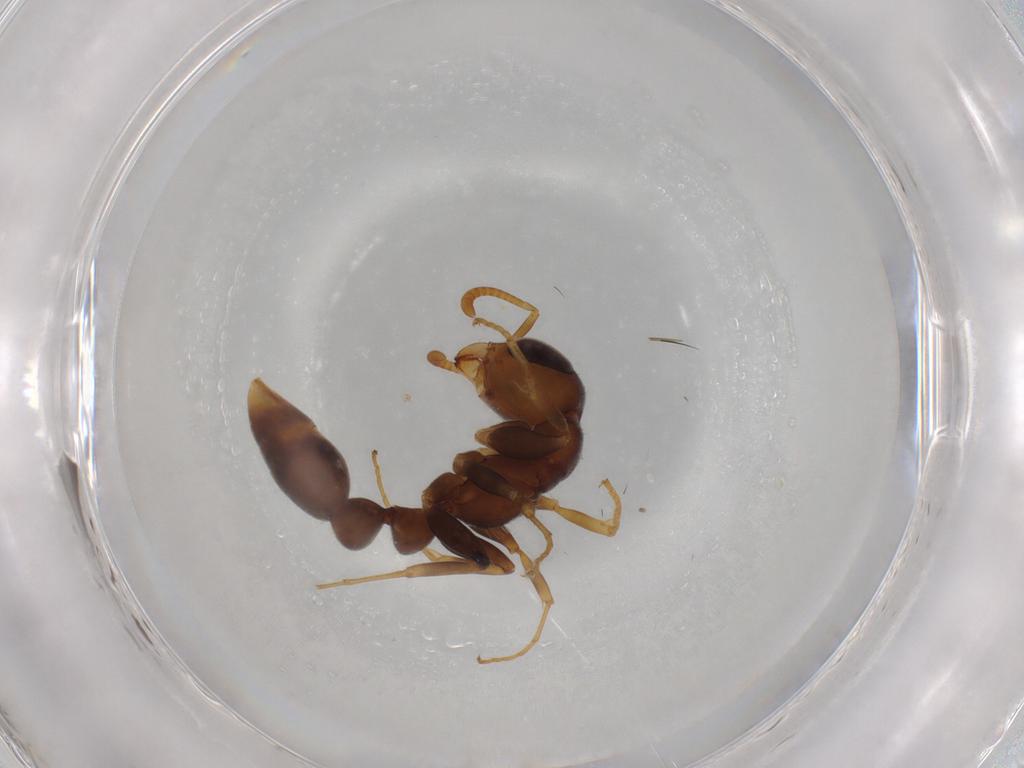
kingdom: Animalia
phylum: Arthropoda
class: Insecta
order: Hymenoptera
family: Formicidae
